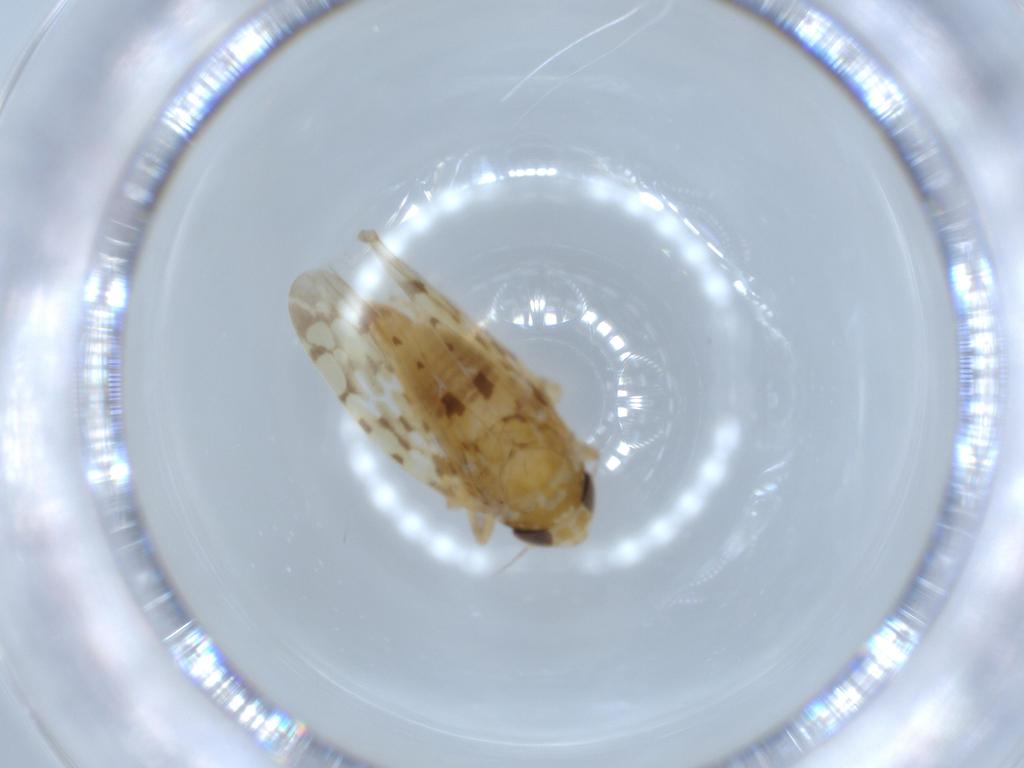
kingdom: Animalia
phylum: Arthropoda
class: Insecta
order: Hemiptera
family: Cicadellidae
